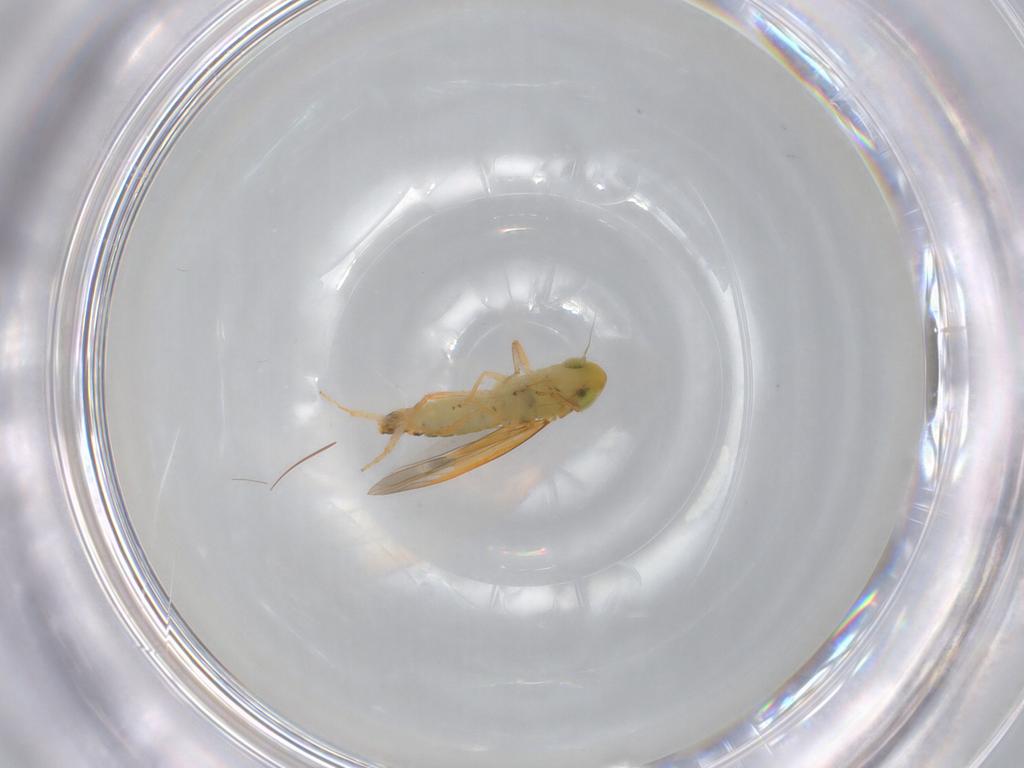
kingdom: Animalia
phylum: Arthropoda
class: Insecta
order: Hemiptera
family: Cicadellidae
